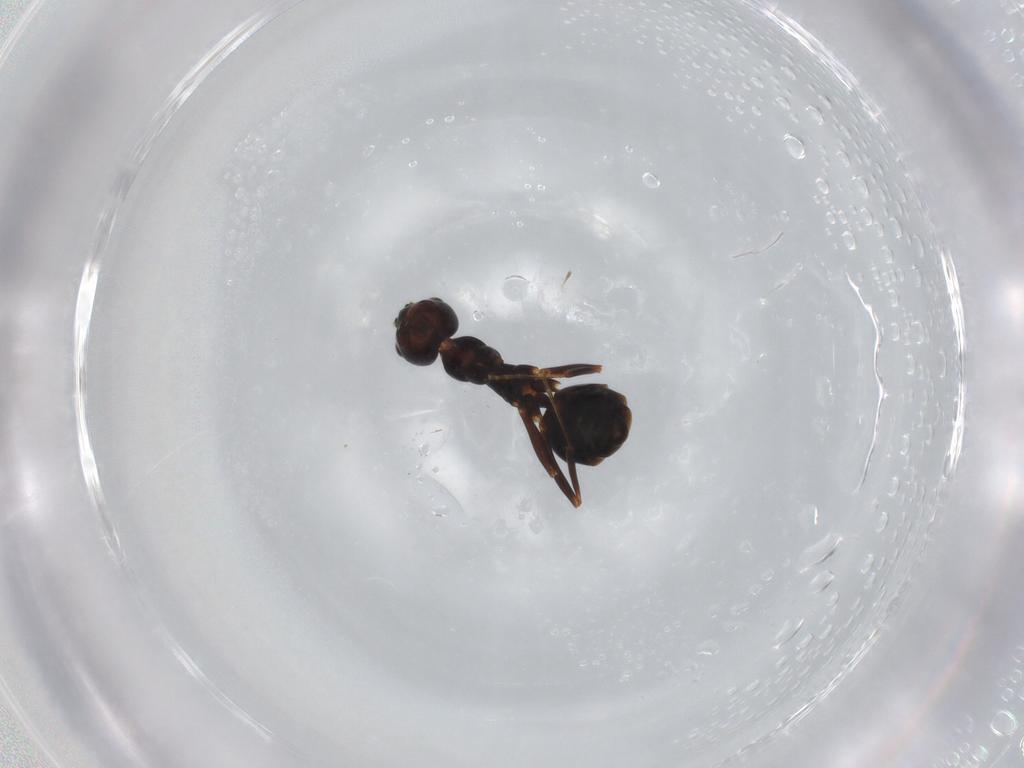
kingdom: Animalia
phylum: Arthropoda
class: Insecta
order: Hymenoptera
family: Formicidae
